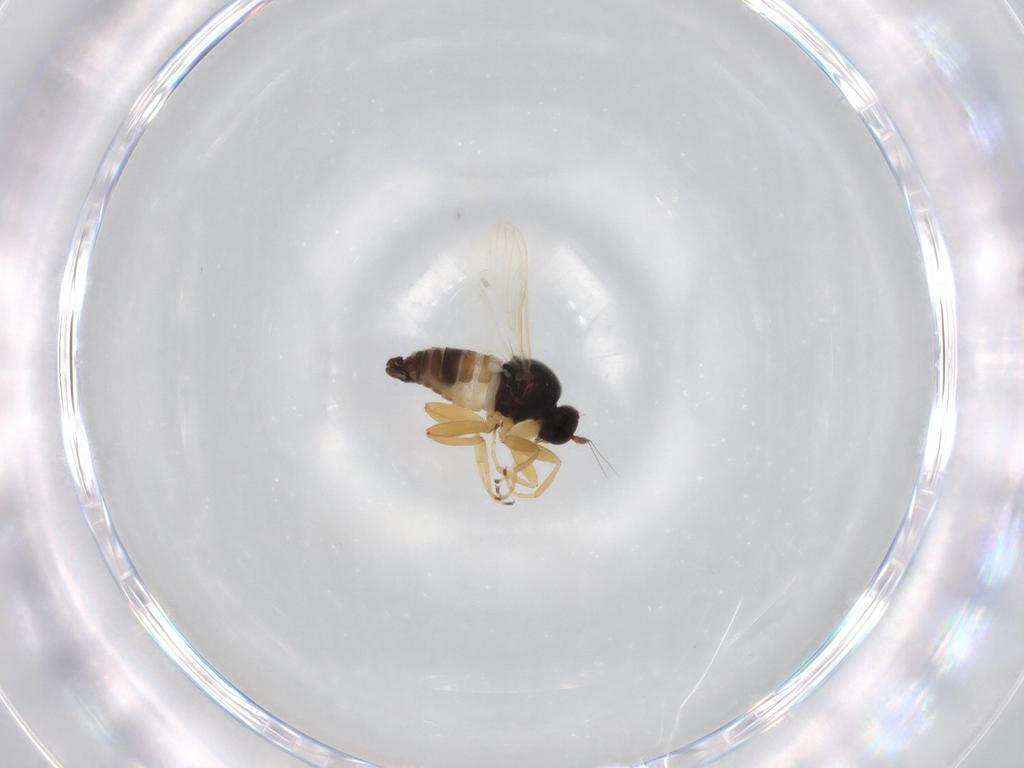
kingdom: Animalia
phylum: Arthropoda
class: Insecta
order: Diptera
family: Hybotidae
